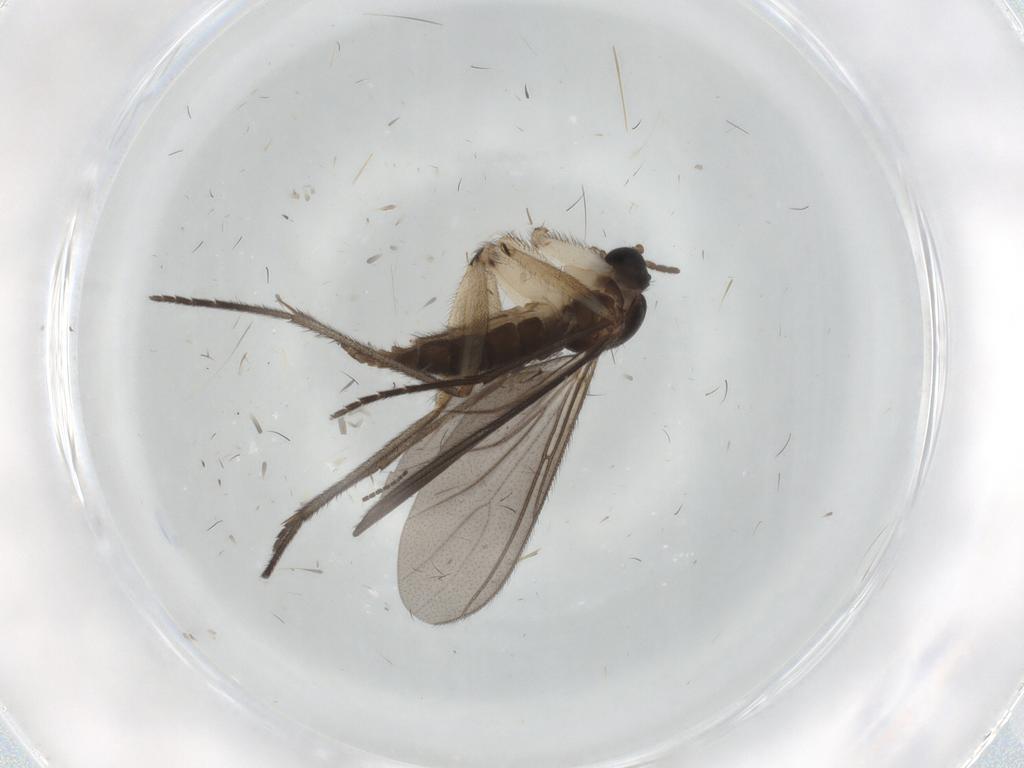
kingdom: Animalia
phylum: Arthropoda
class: Insecta
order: Diptera
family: Sciaridae
